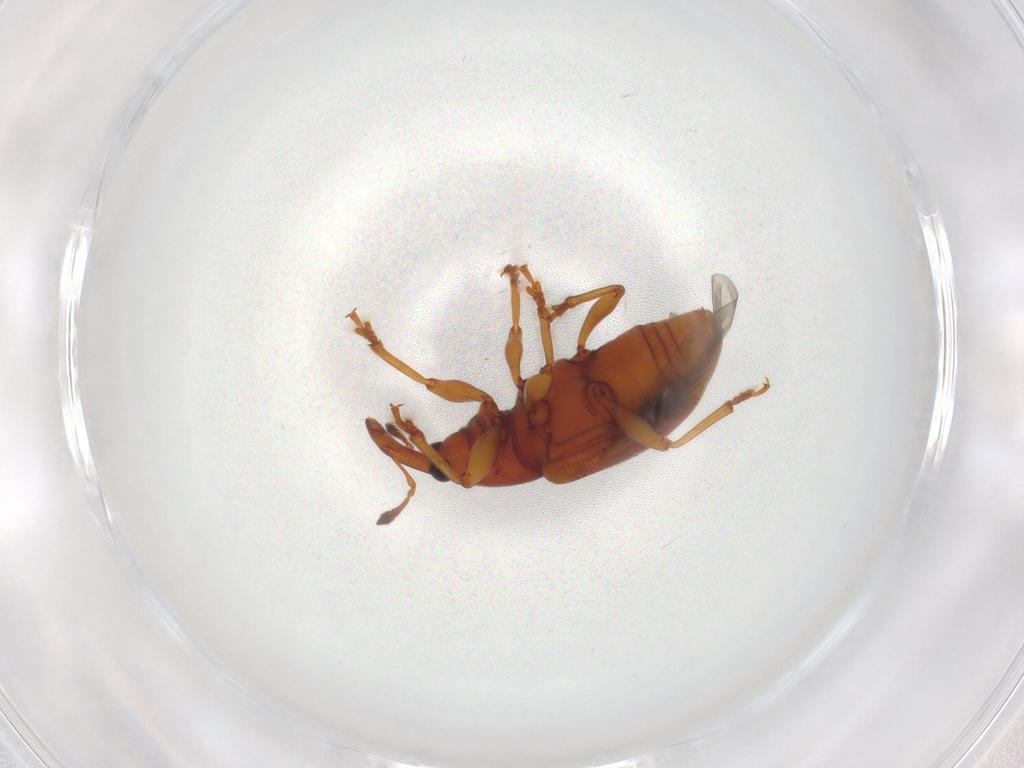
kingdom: Animalia
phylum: Arthropoda
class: Insecta
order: Coleoptera
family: Curculionidae
